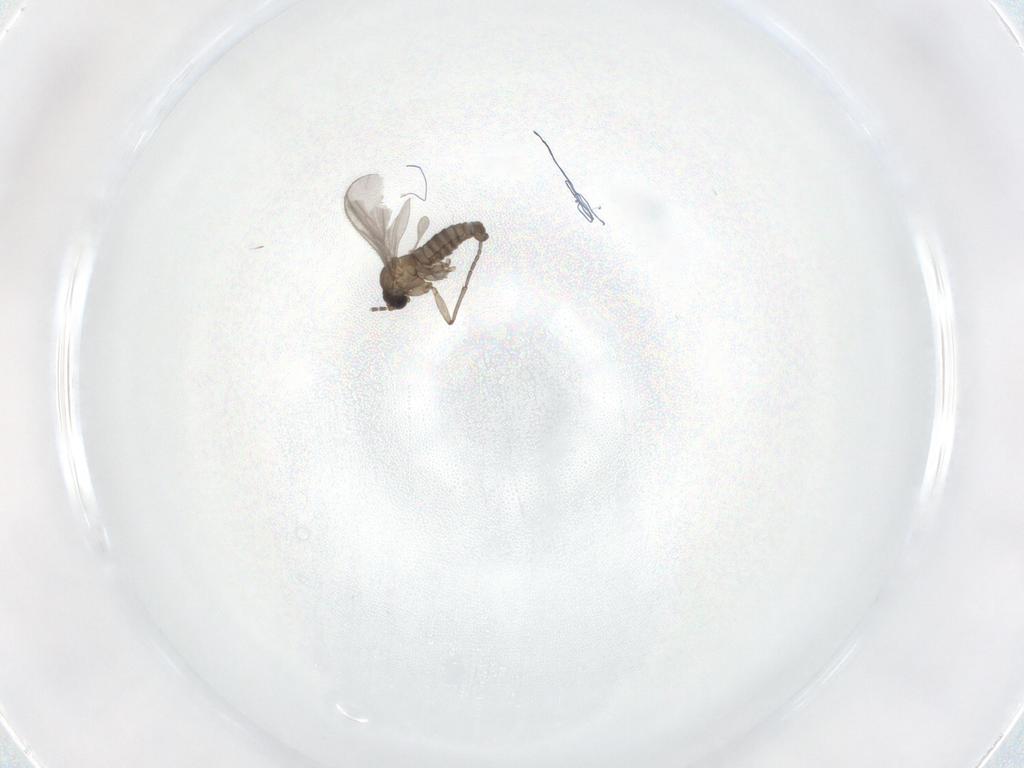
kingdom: Animalia
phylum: Arthropoda
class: Insecta
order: Diptera
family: Sciaridae
